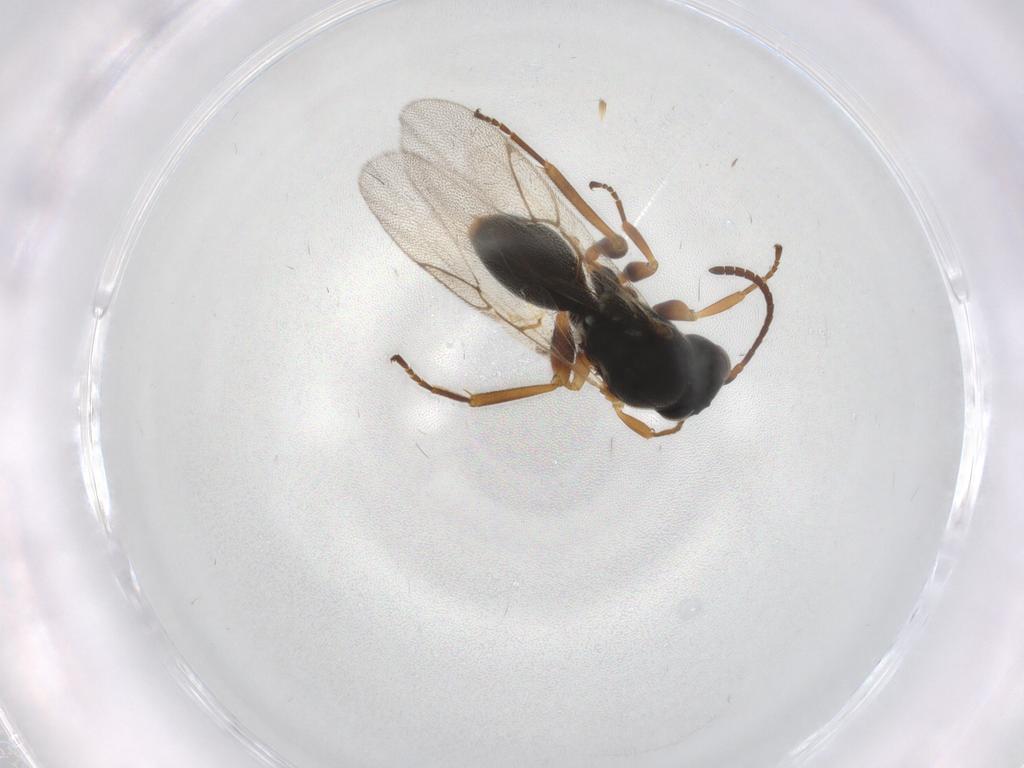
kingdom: Animalia
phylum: Arthropoda
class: Insecta
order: Hymenoptera
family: Cynipidae
